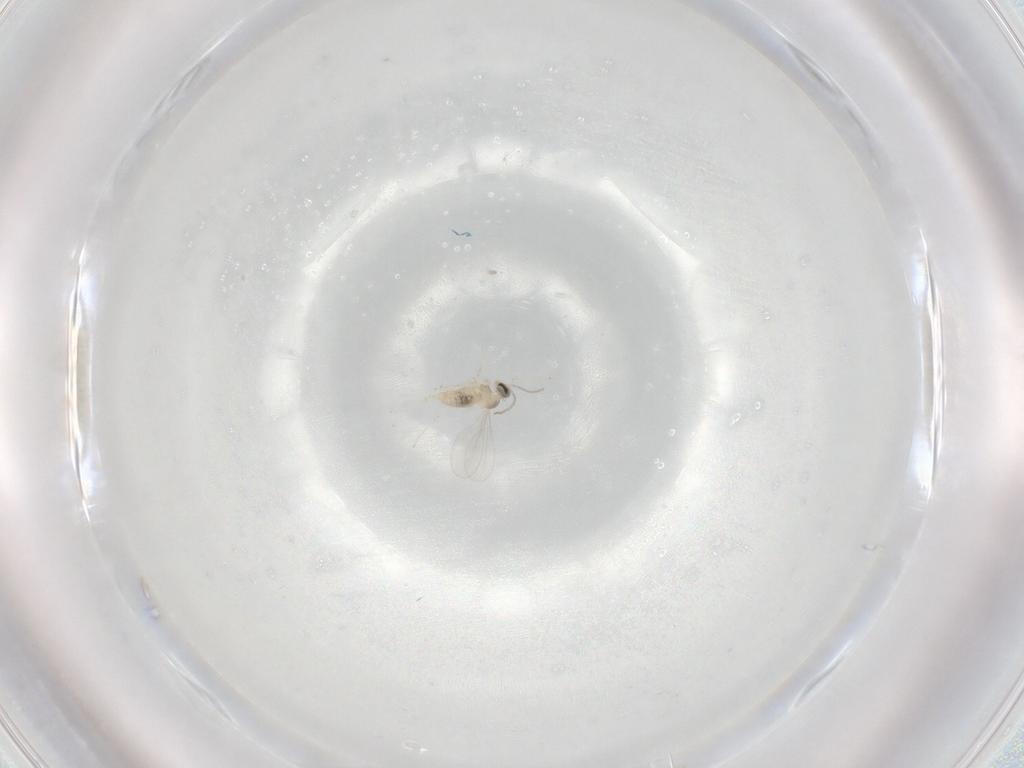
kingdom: Animalia
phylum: Arthropoda
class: Insecta
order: Diptera
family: Cecidomyiidae
